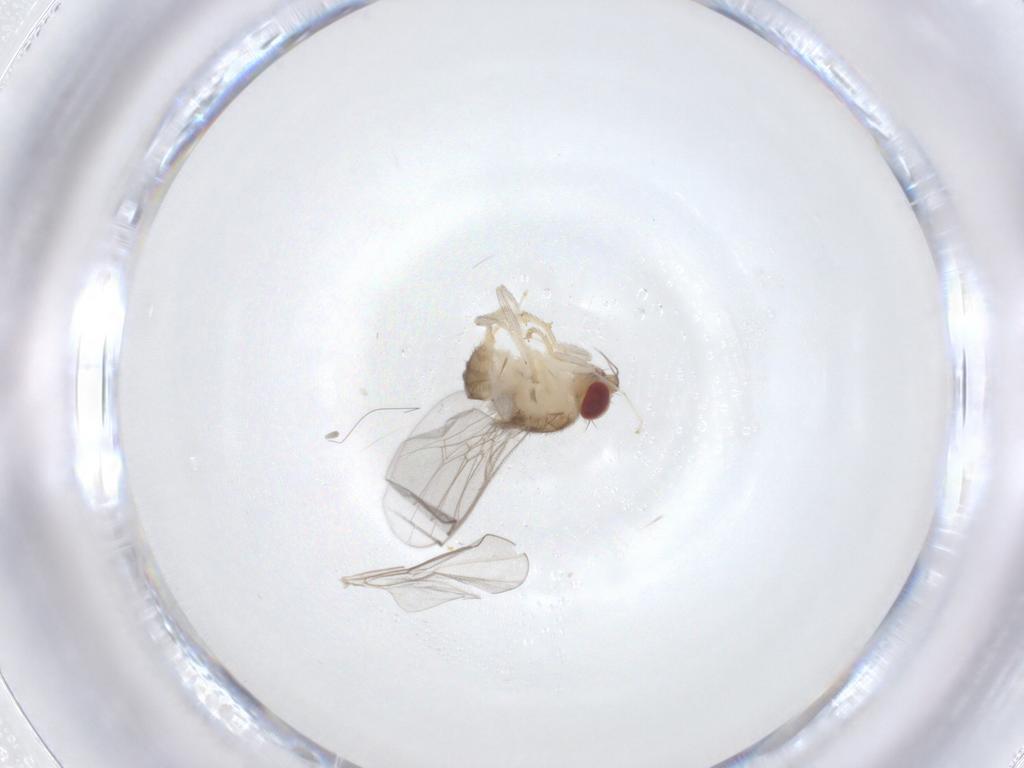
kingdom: Animalia
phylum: Arthropoda
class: Insecta
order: Diptera
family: Chloropidae
